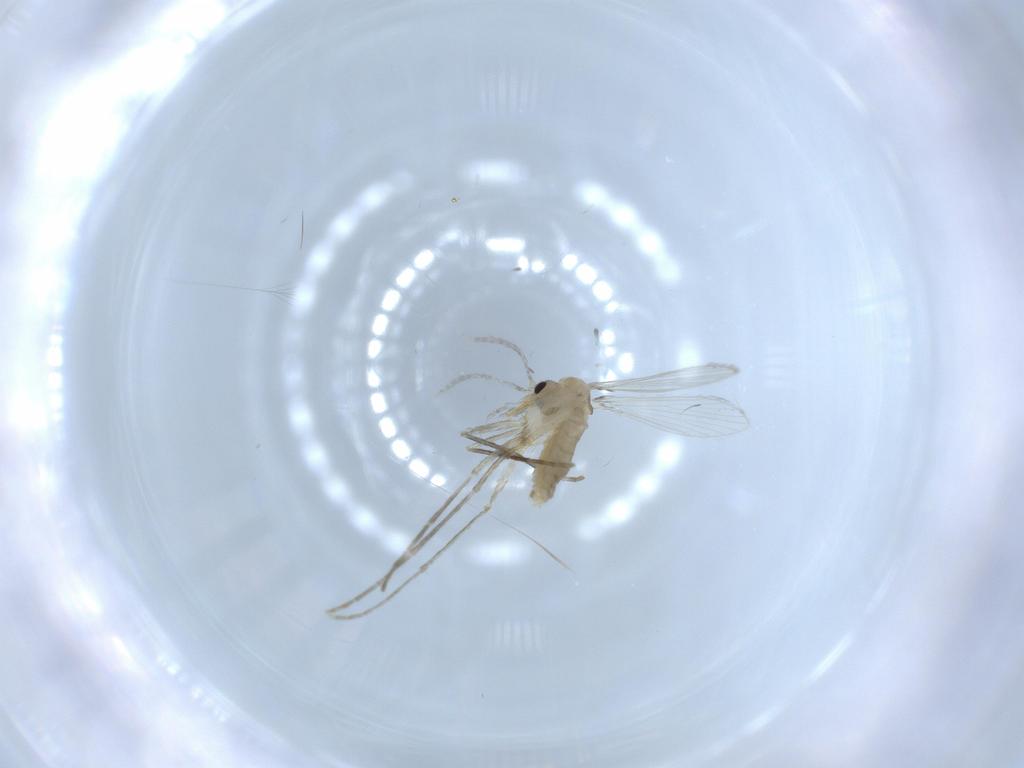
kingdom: Animalia
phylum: Arthropoda
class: Insecta
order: Diptera
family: Psychodidae
